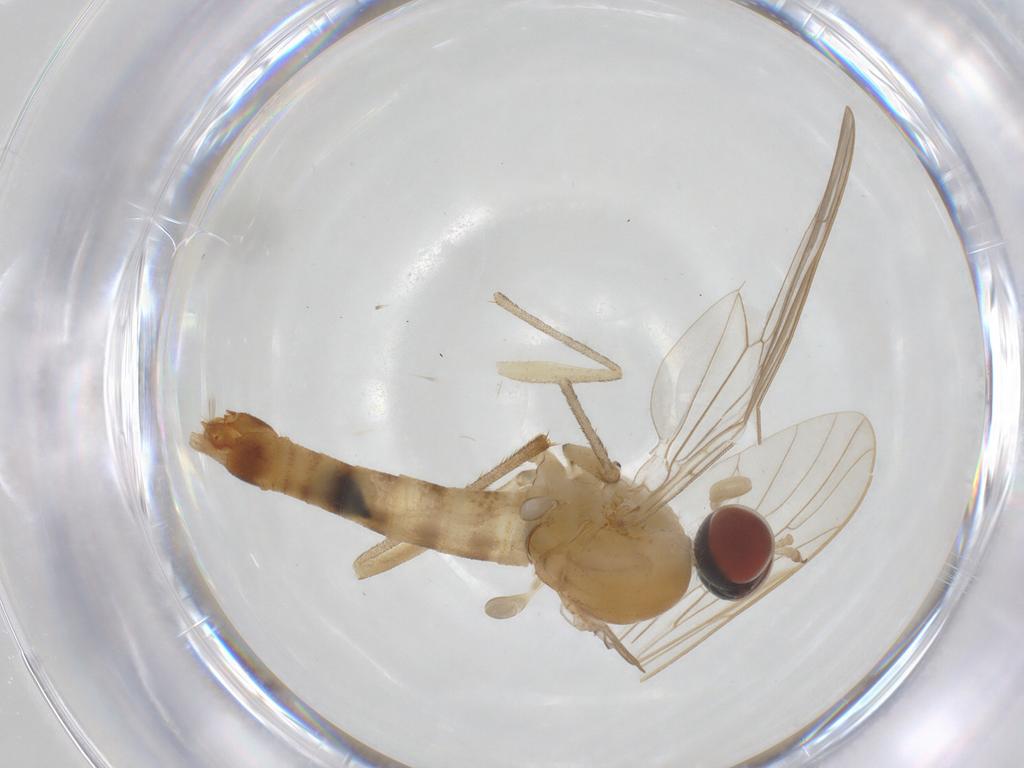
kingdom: Animalia
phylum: Arthropoda
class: Insecta
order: Diptera
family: Apsilocephalidae
